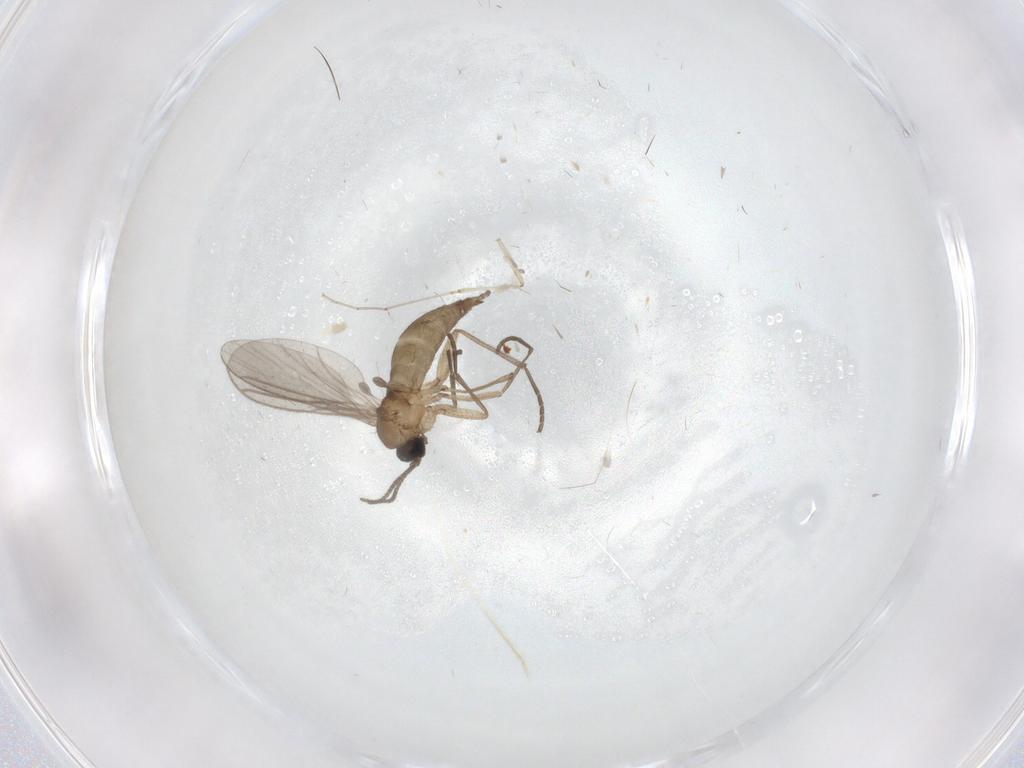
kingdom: Animalia
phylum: Arthropoda
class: Insecta
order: Diptera
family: Sciaridae
